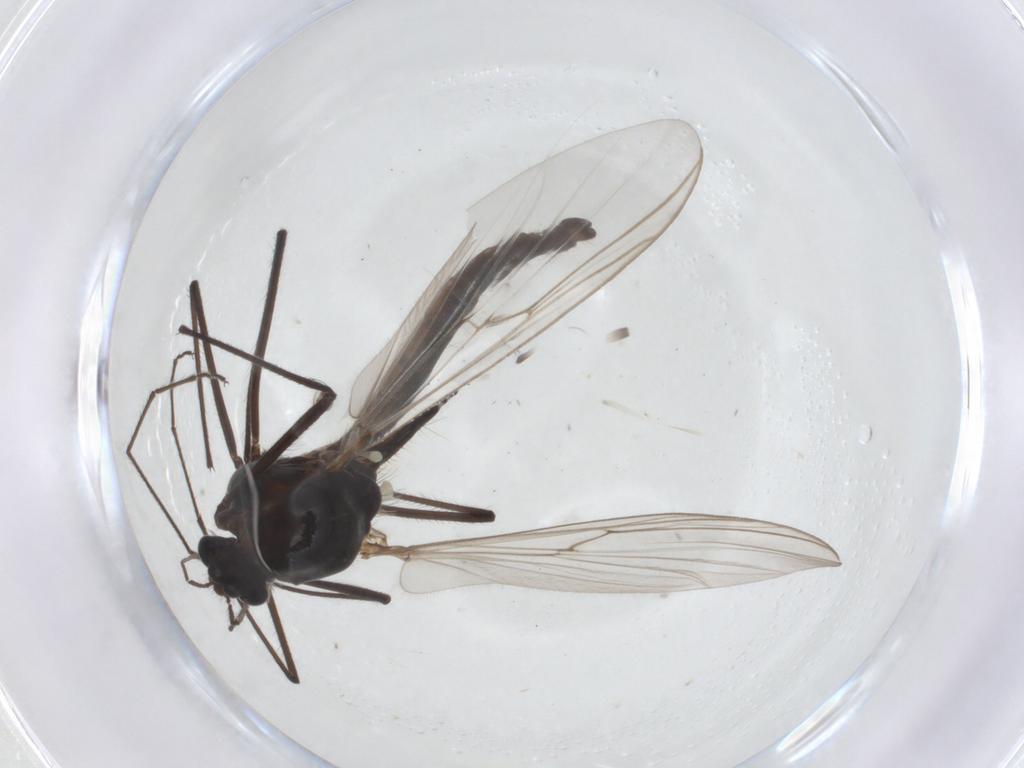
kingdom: Animalia
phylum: Arthropoda
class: Insecta
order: Diptera
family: Chironomidae
